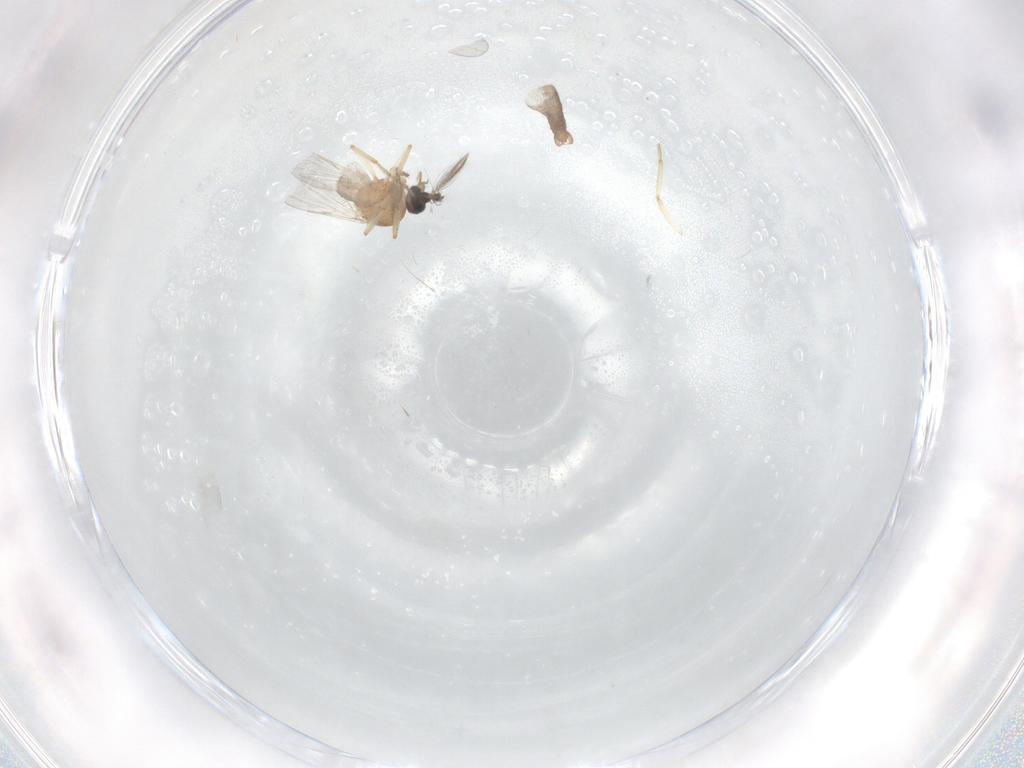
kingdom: Animalia
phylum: Arthropoda
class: Insecta
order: Diptera
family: Ceratopogonidae
